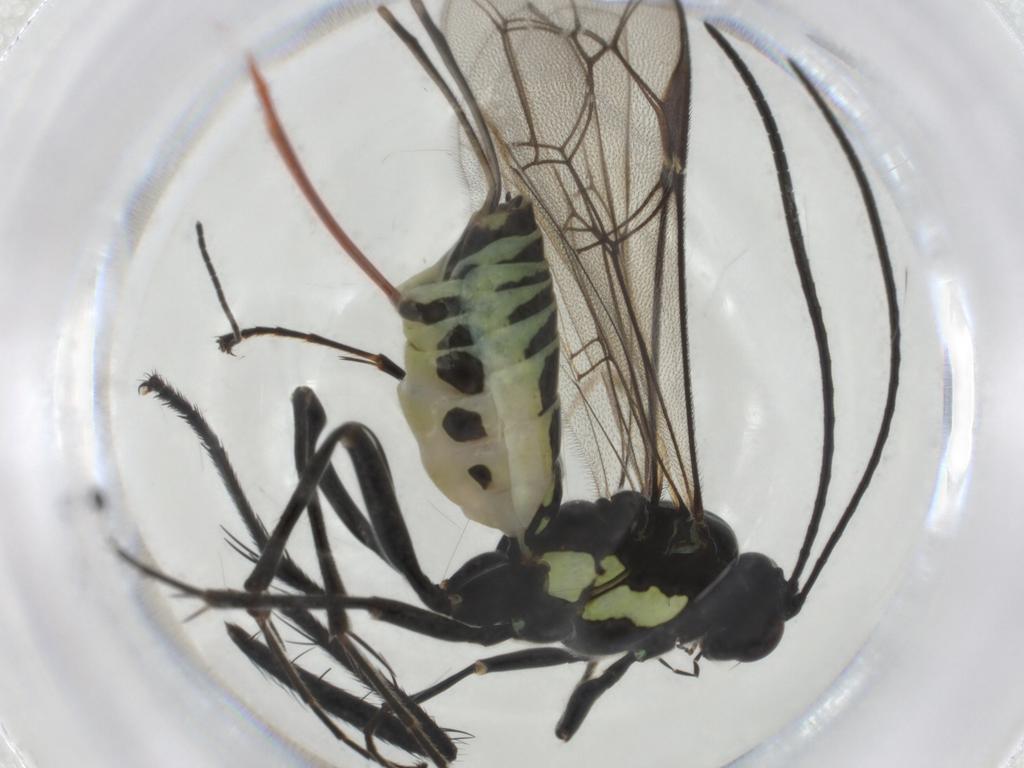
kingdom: Animalia
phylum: Arthropoda
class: Insecta
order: Hymenoptera
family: Ichneumonidae
